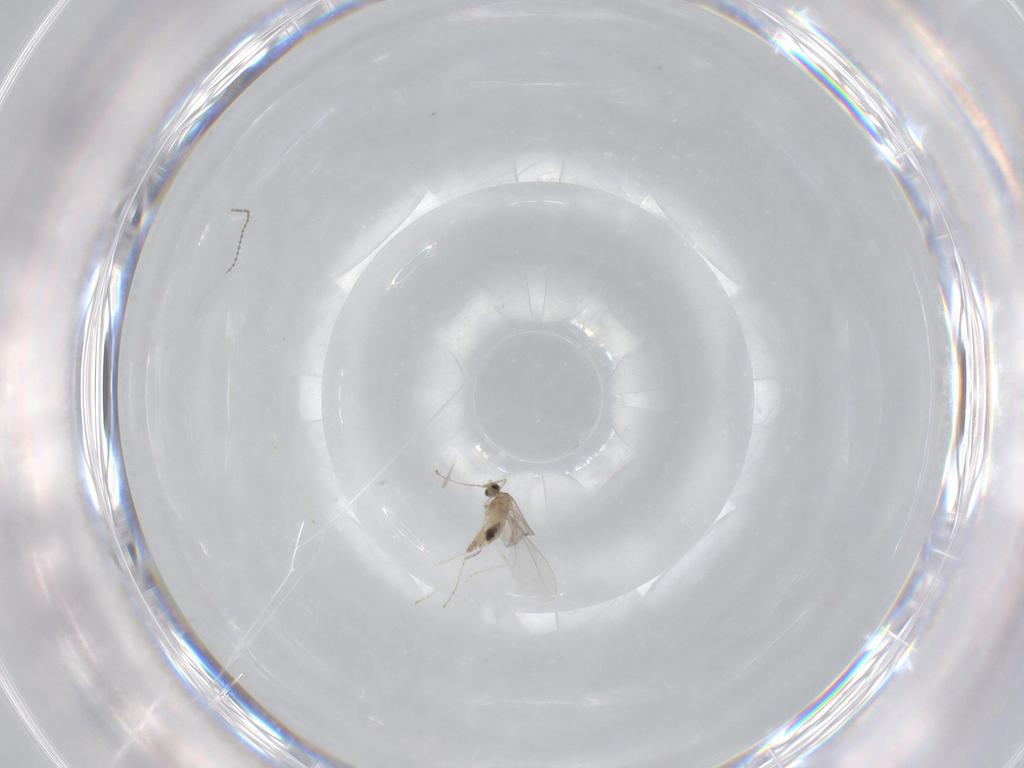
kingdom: Animalia
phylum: Arthropoda
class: Insecta
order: Diptera
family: Cecidomyiidae
